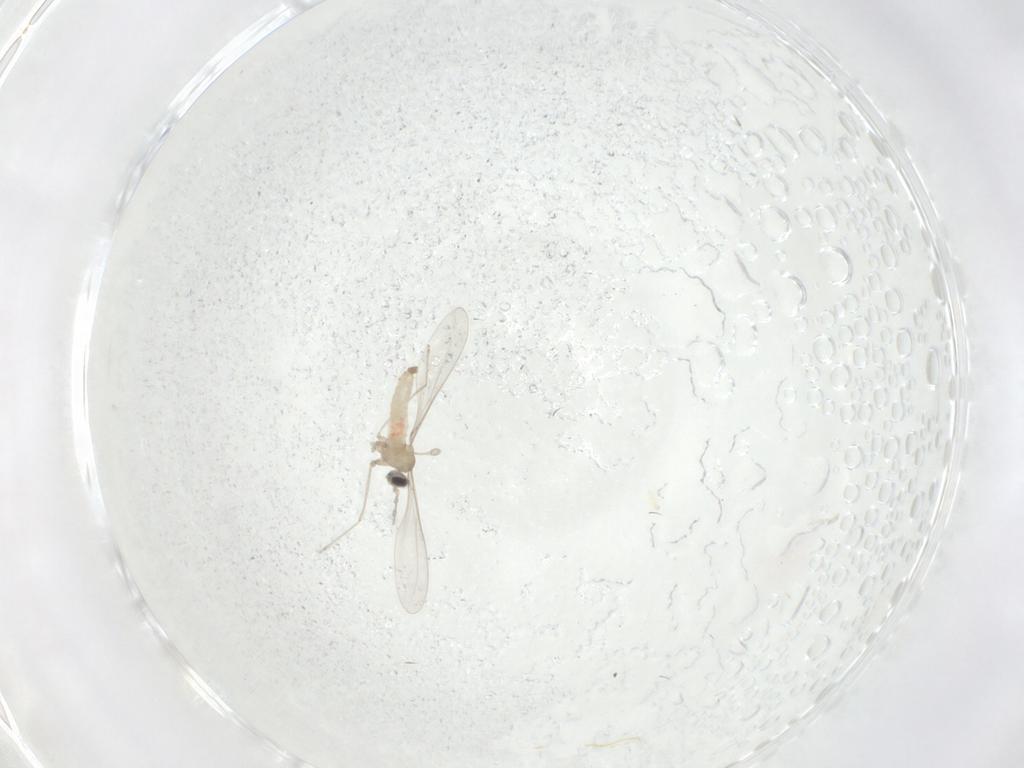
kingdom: Animalia
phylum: Arthropoda
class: Insecta
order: Diptera
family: Cecidomyiidae
